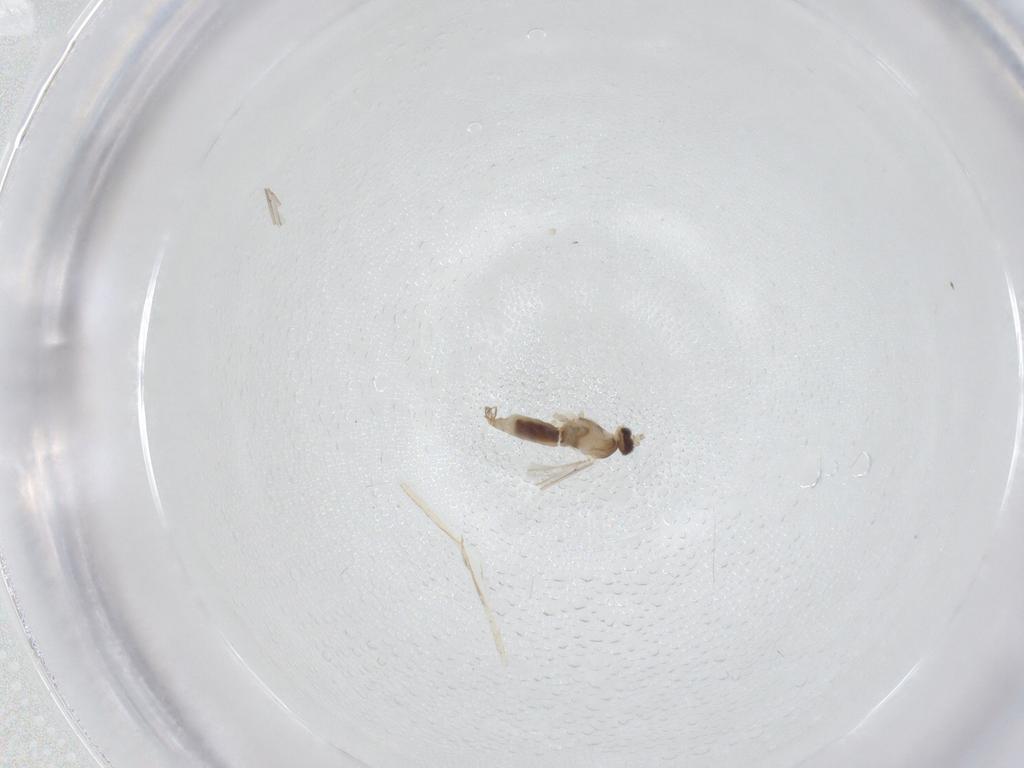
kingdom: Animalia
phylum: Arthropoda
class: Insecta
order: Diptera
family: Cecidomyiidae
